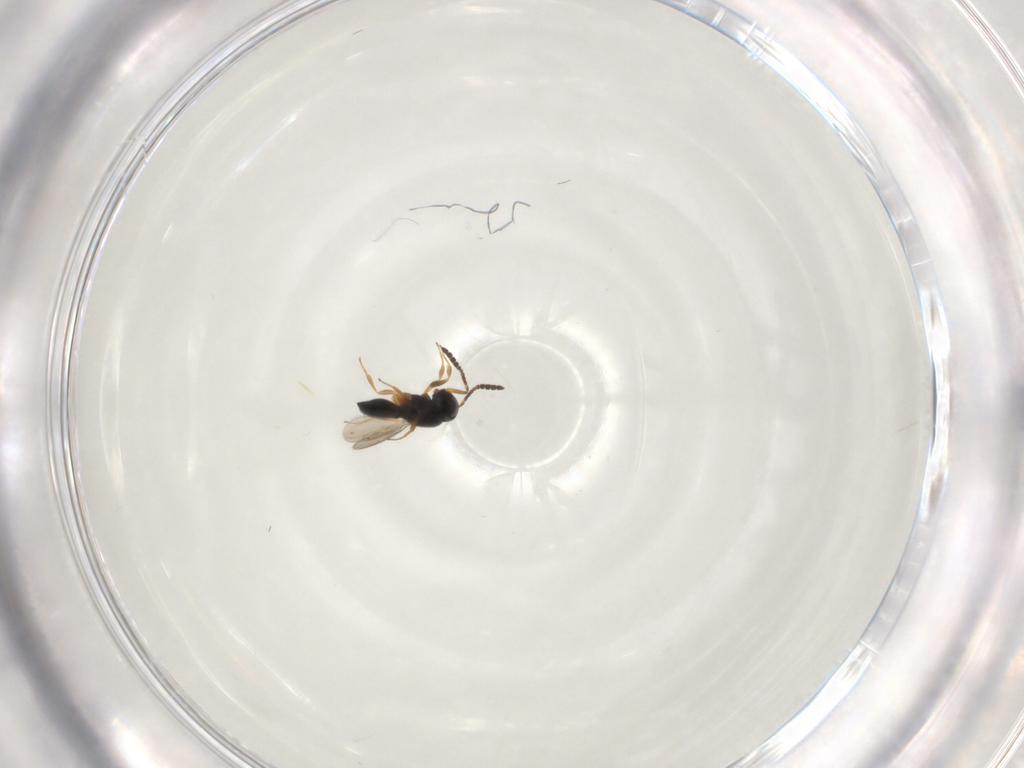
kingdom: Animalia
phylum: Arthropoda
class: Insecta
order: Hymenoptera
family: Scelionidae
